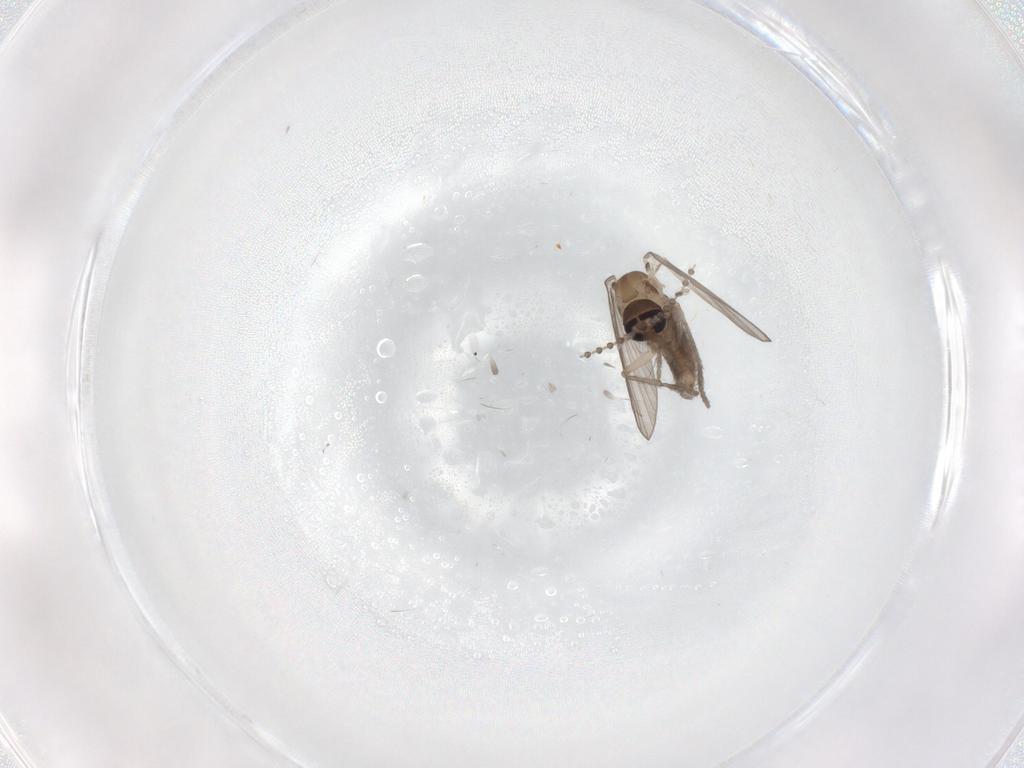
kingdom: Animalia
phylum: Arthropoda
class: Insecta
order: Diptera
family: Psychodidae
